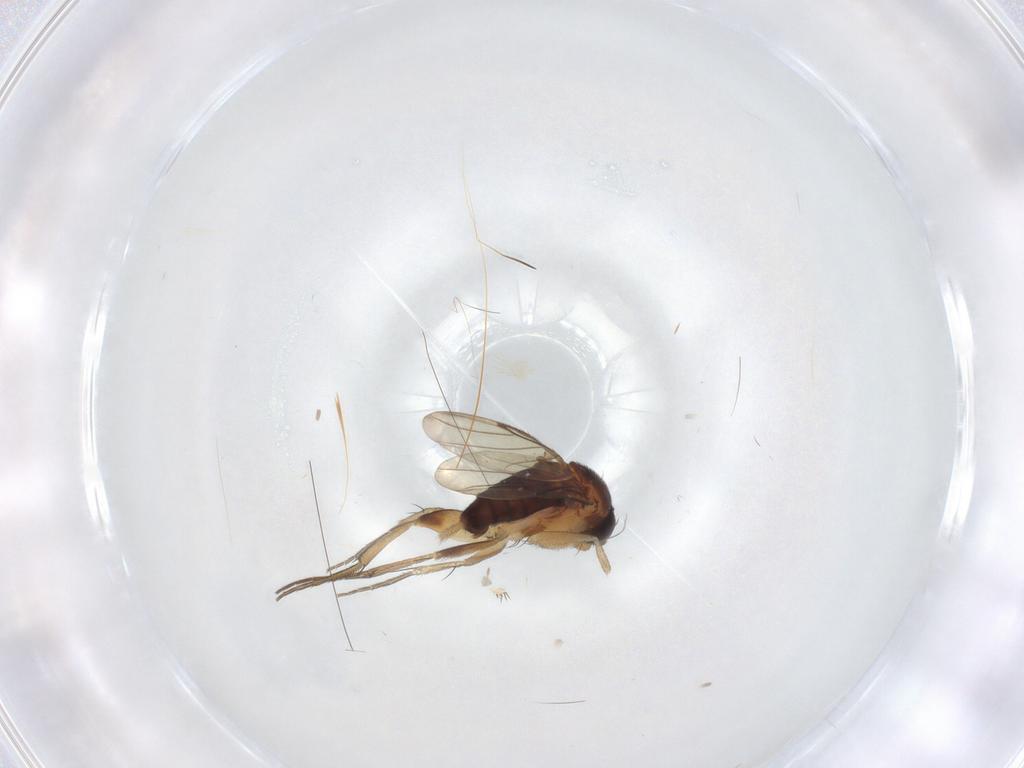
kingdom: Animalia
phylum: Arthropoda
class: Insecta
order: Diptera
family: Phoridae
